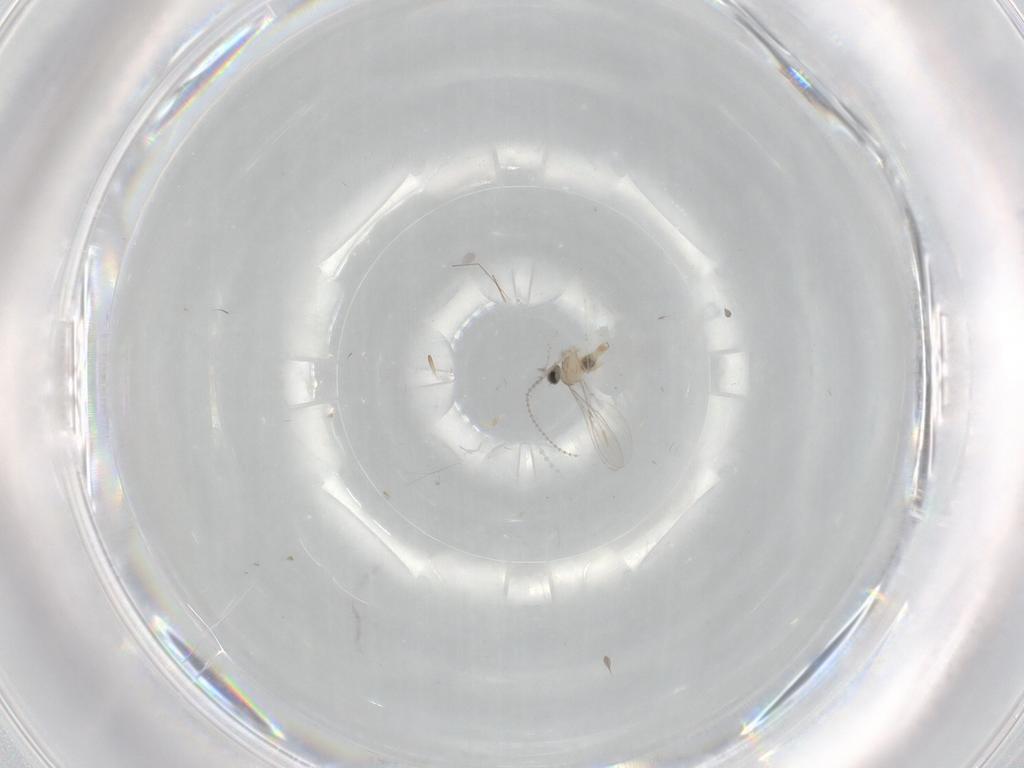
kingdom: Animalia
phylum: Arthropoda
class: Insecta
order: Diptera
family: Cecidomyiidae
